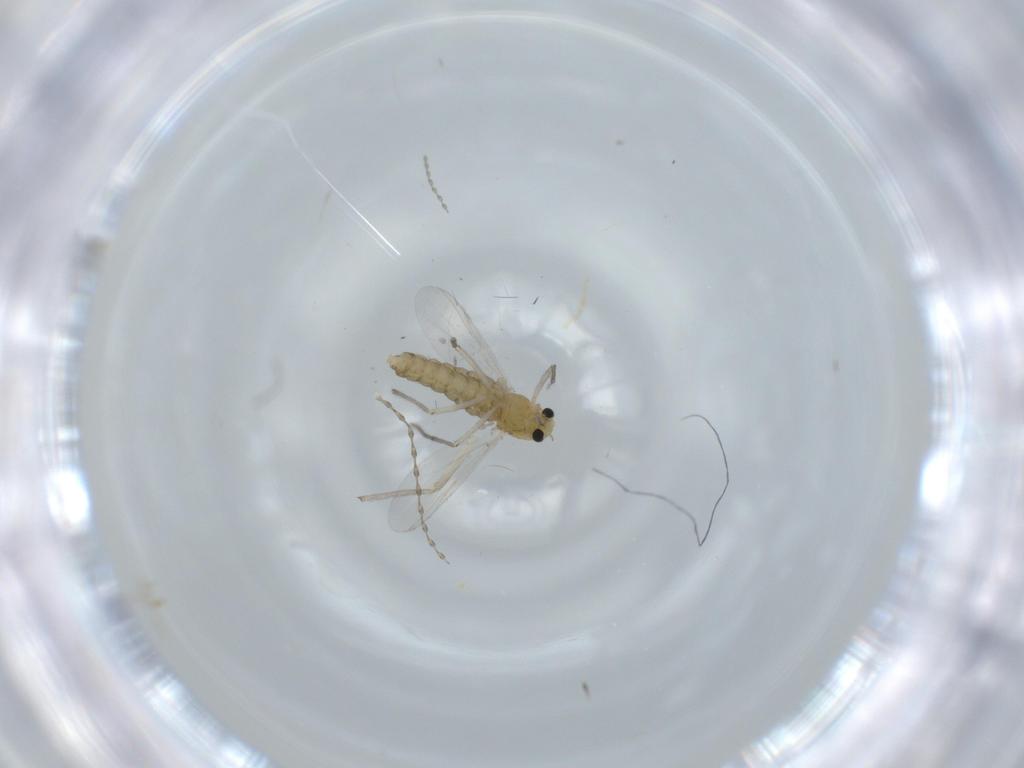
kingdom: Animalia
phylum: Arthropoda
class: Insecta
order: Diptera
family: Chironomidae
